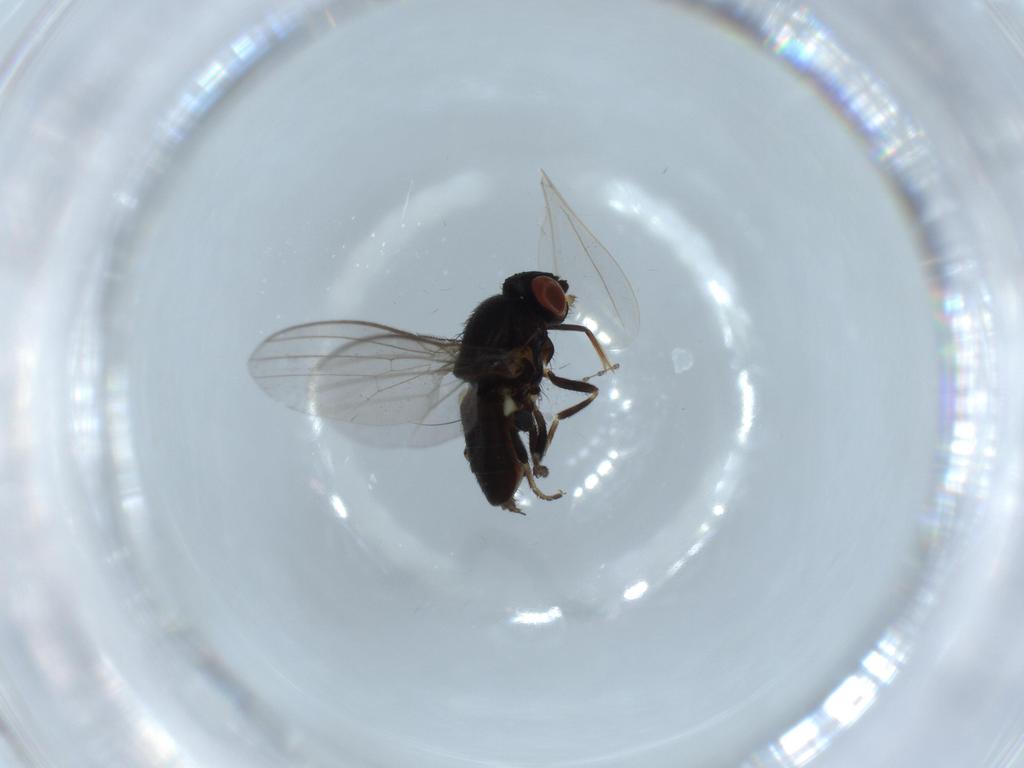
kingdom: Animalia
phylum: Arthropoda
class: Insecta
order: Diptera
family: Milichiidae
